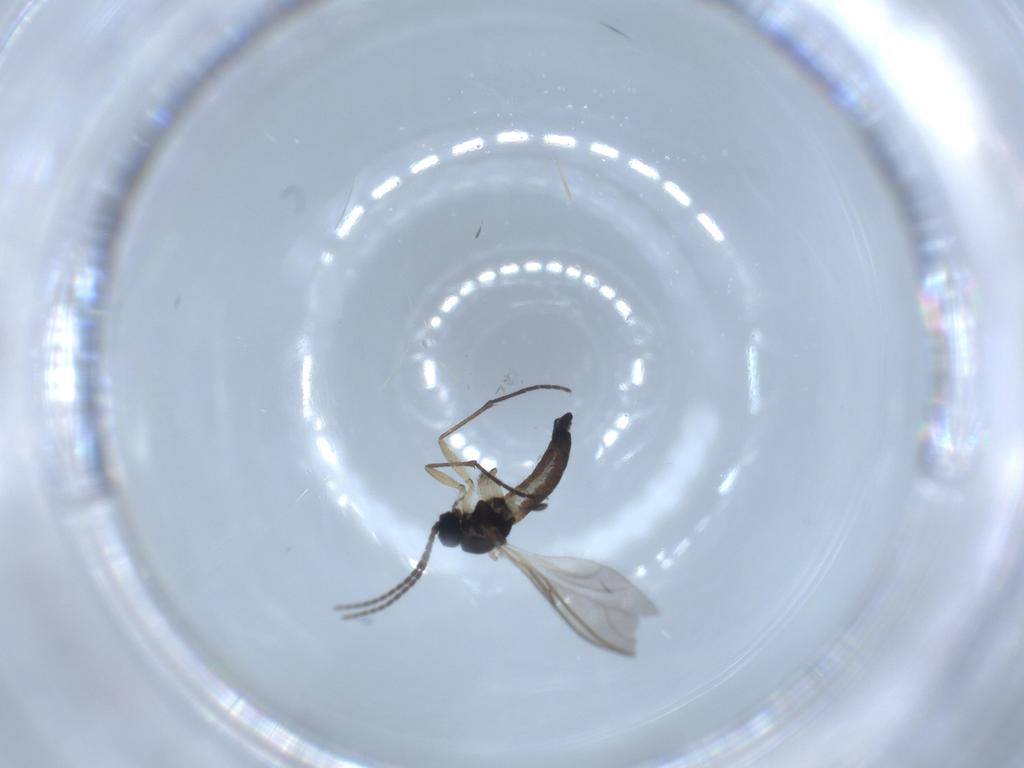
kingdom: Animalia
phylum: Arthropoda
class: Insecta
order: Diptera
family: Sciaridae
